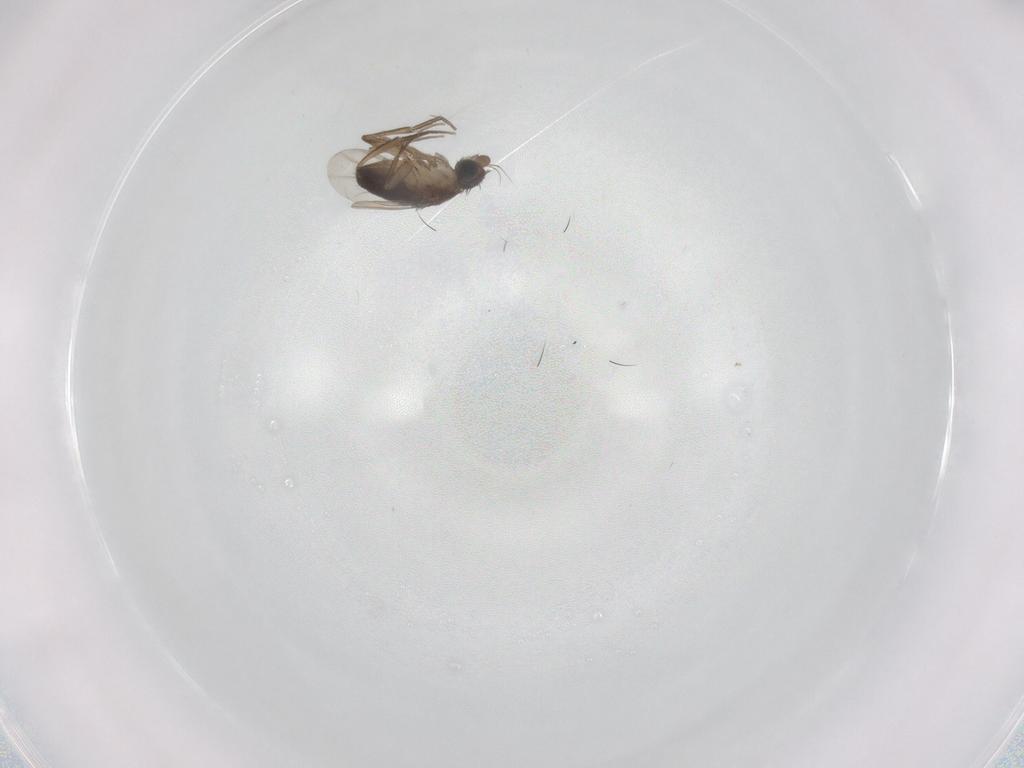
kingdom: Animalia
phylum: Arthropoda
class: Insecta
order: Diptera
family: Phoridae
